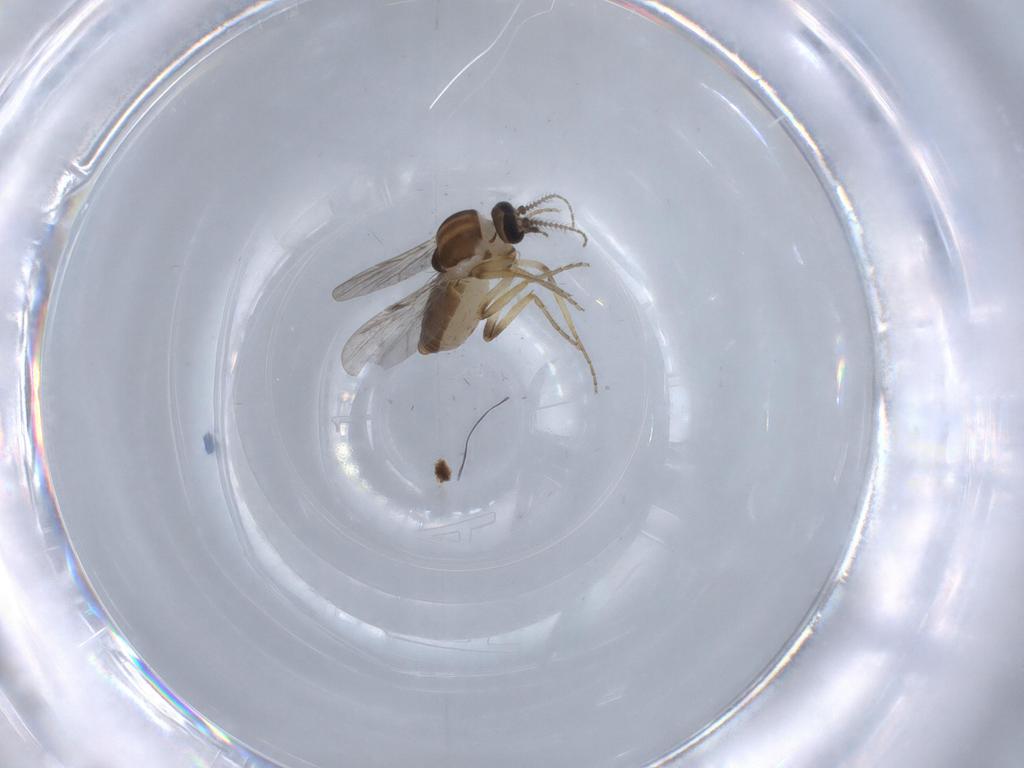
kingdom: Animalia
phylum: Arthropoda
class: Insecta
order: Diptera
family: Ceratopogonidae
